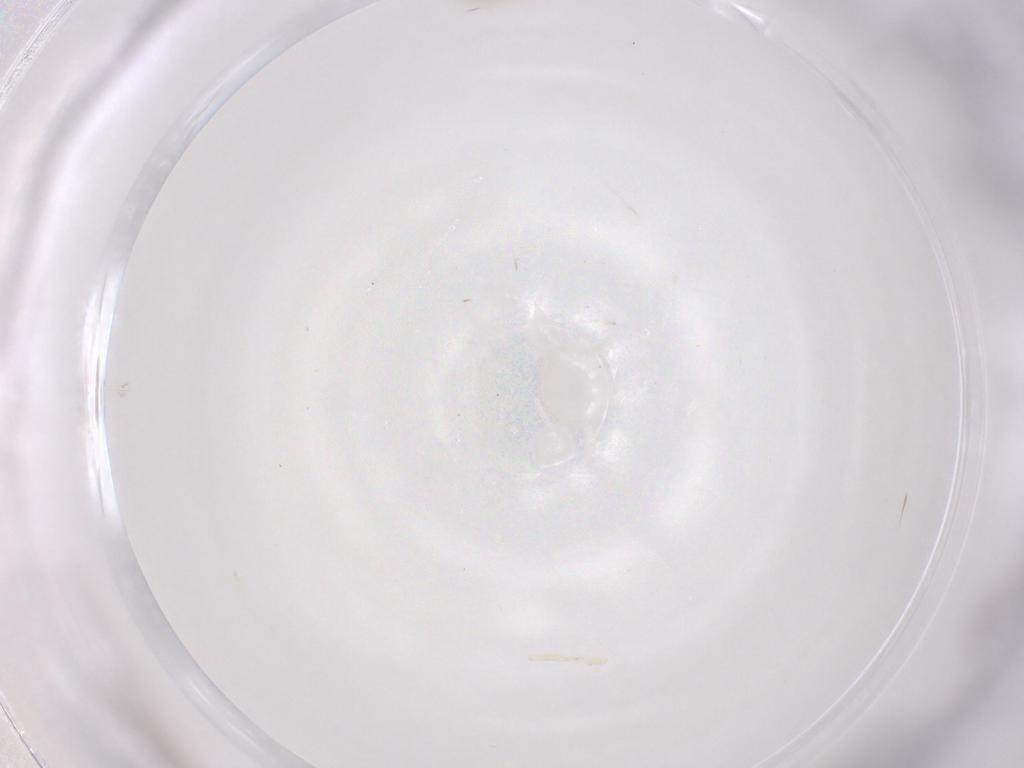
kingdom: Animalia
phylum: Arthropoda
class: Insecta
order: Diptera
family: Cecidomyiidae
